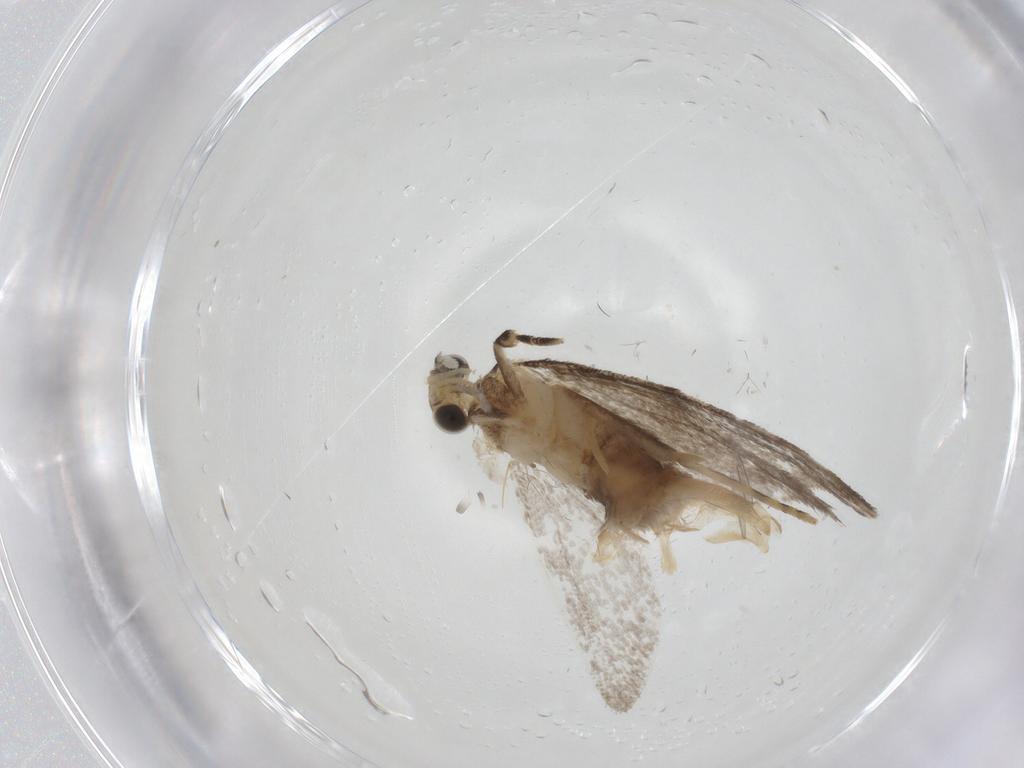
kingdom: Animalia
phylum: Arthropoda
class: Insecta
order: Lepidoptera
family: Tineidae
